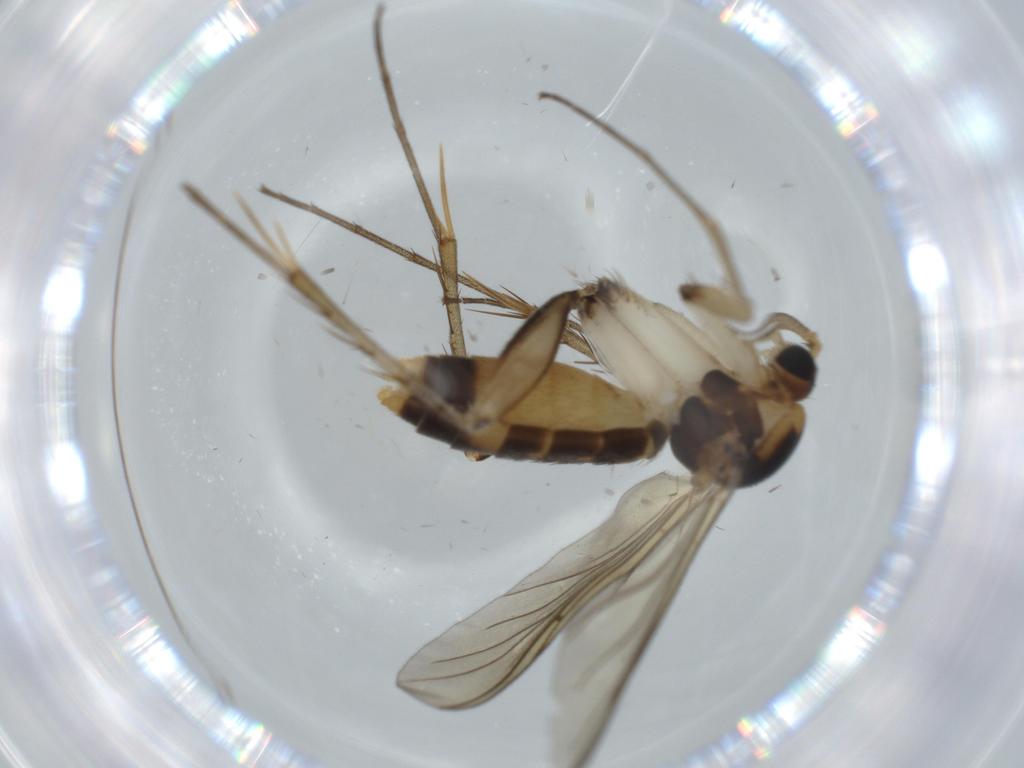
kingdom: Animalia
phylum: Arthropoda
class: Insecta
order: Diptera
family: Mycetophilidae
